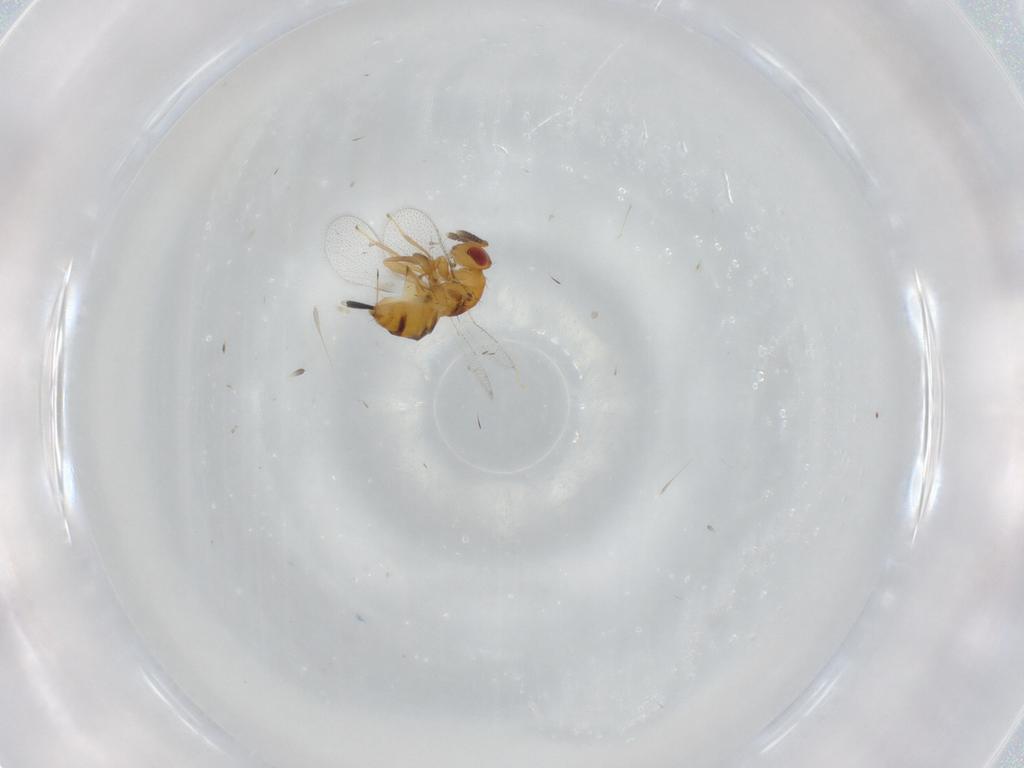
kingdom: Animalia
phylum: Arthropoda
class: Insecta
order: Hymenoptera
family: Torymidae
